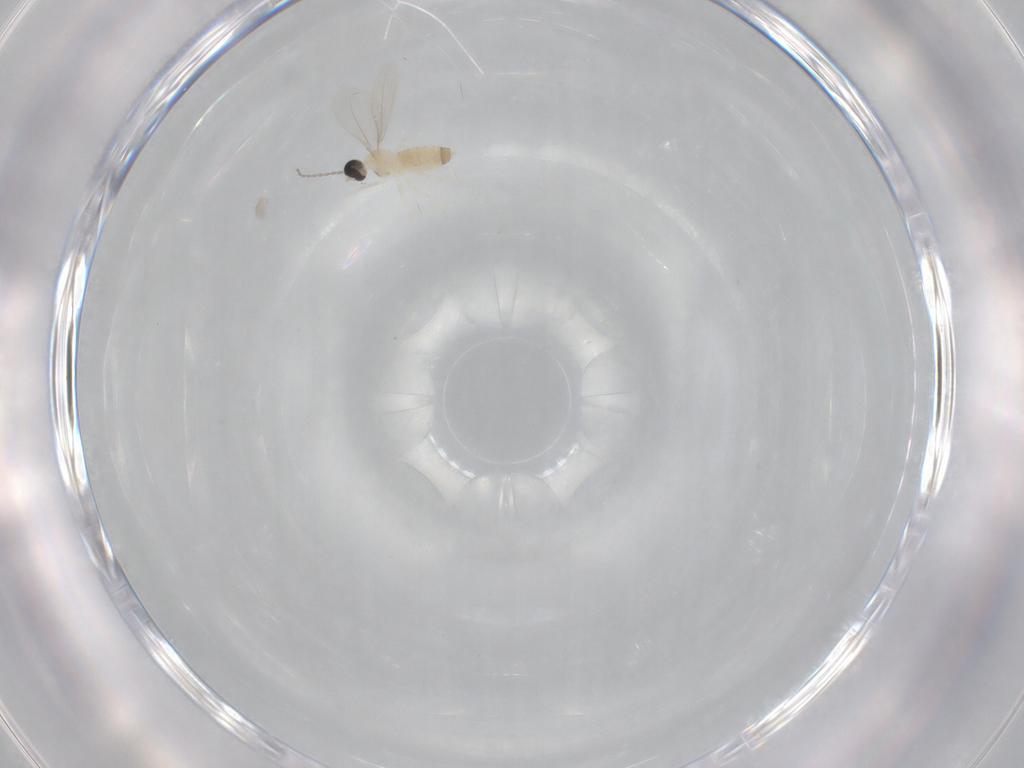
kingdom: Animalia
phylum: Arthropoda
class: Insecta
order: Diptera
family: Cecidomyiidae
